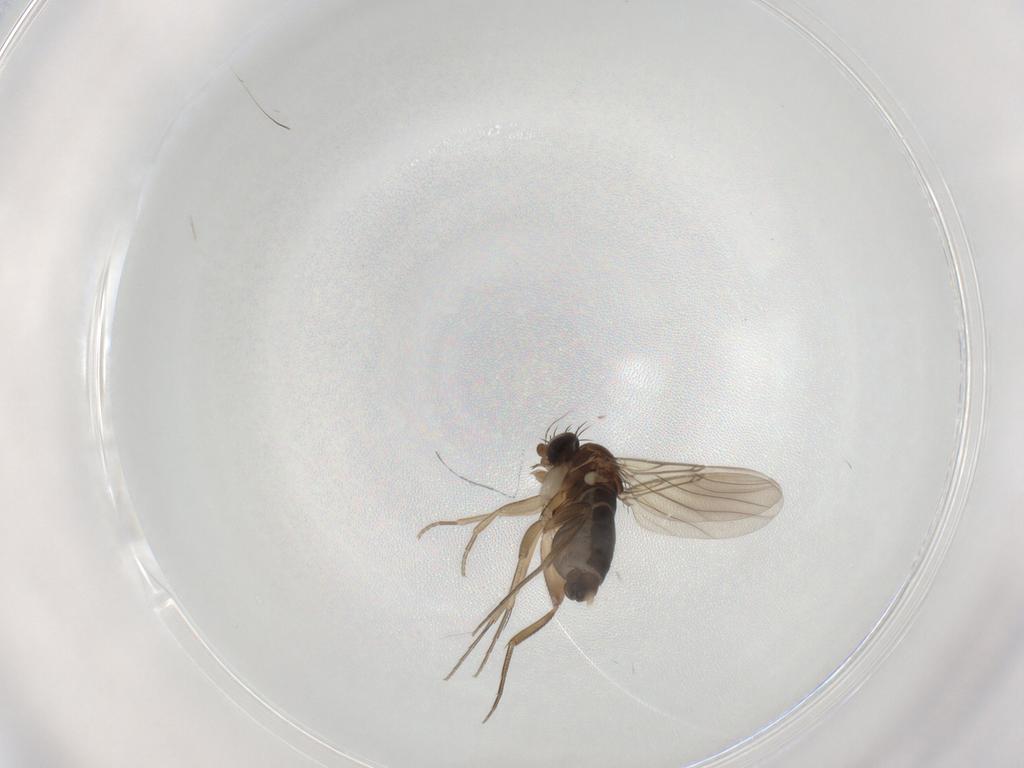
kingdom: Animalia
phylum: Arthropoda
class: Insecta
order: Diptera
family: Phoridae
